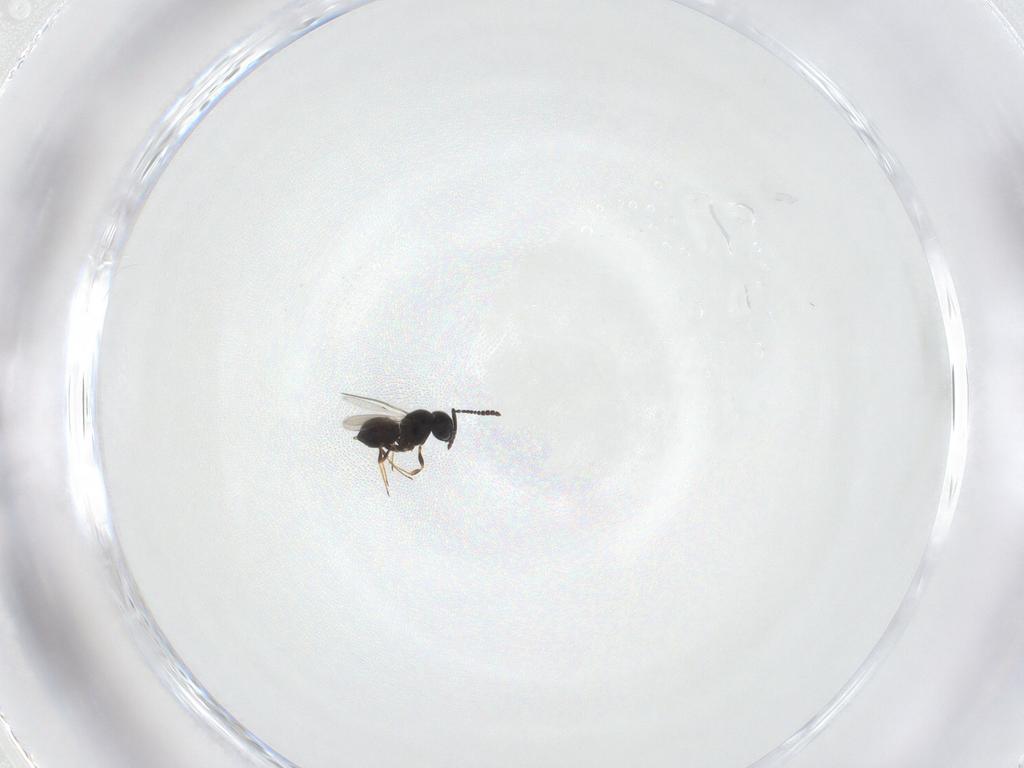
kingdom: Animalia
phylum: Arthropoda
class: Insecta
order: Hymenoptera
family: Scelionidae
